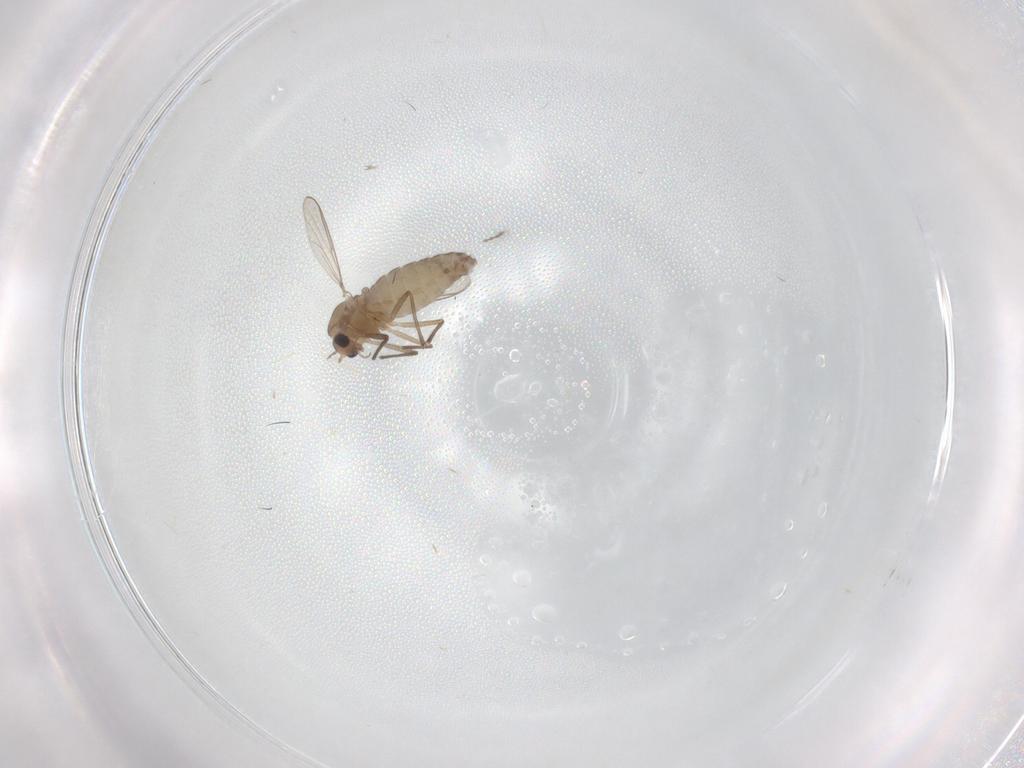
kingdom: Animalia
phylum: Arthropoda
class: Insecta
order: Diptera
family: Chironomidae
